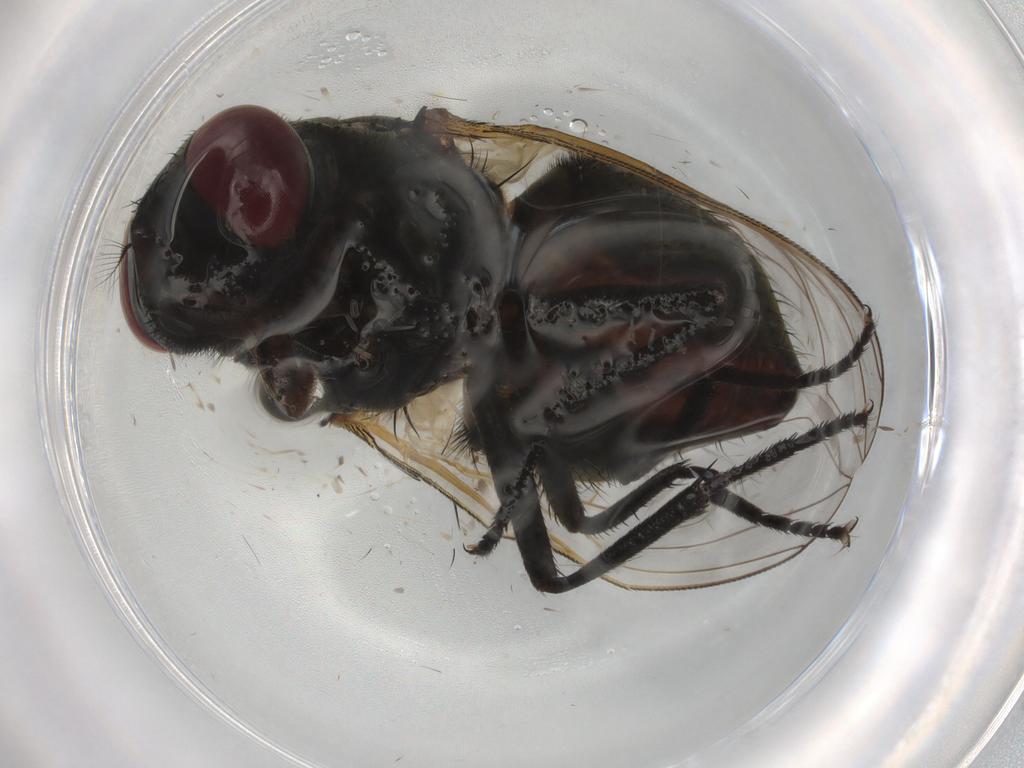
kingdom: Animalia
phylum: Arthropoda
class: Insecta
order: Diptera
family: Muscidae
